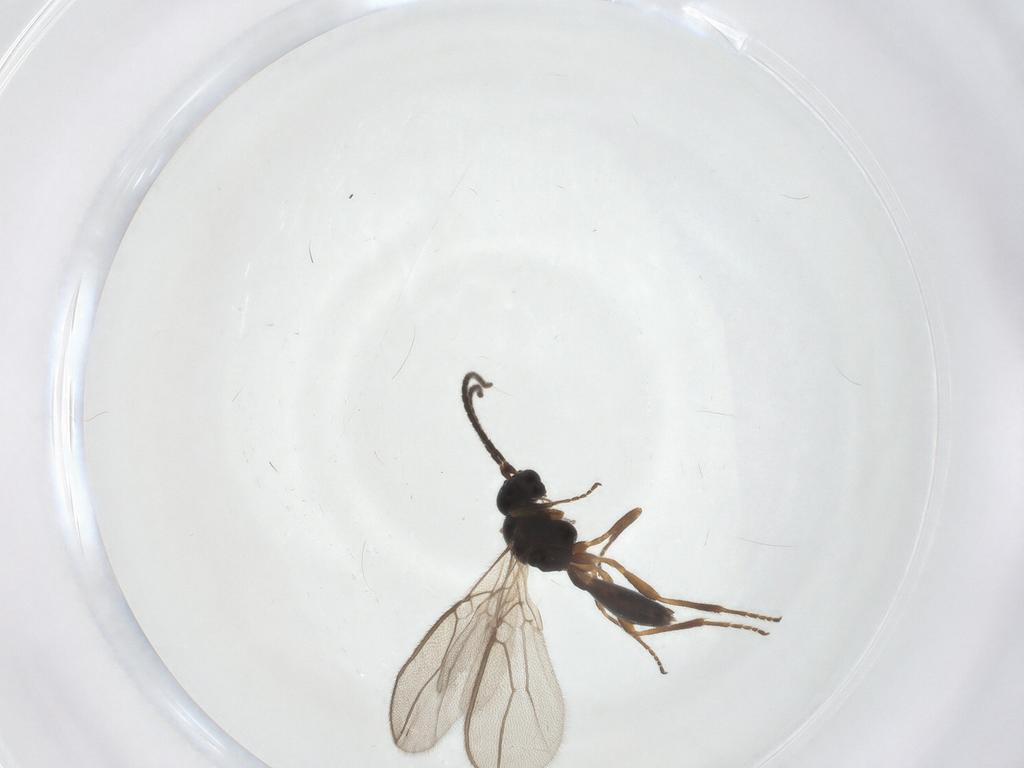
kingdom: Animalia
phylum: Arthropoda
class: Insecta
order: Hymenoptera
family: Braconidae
